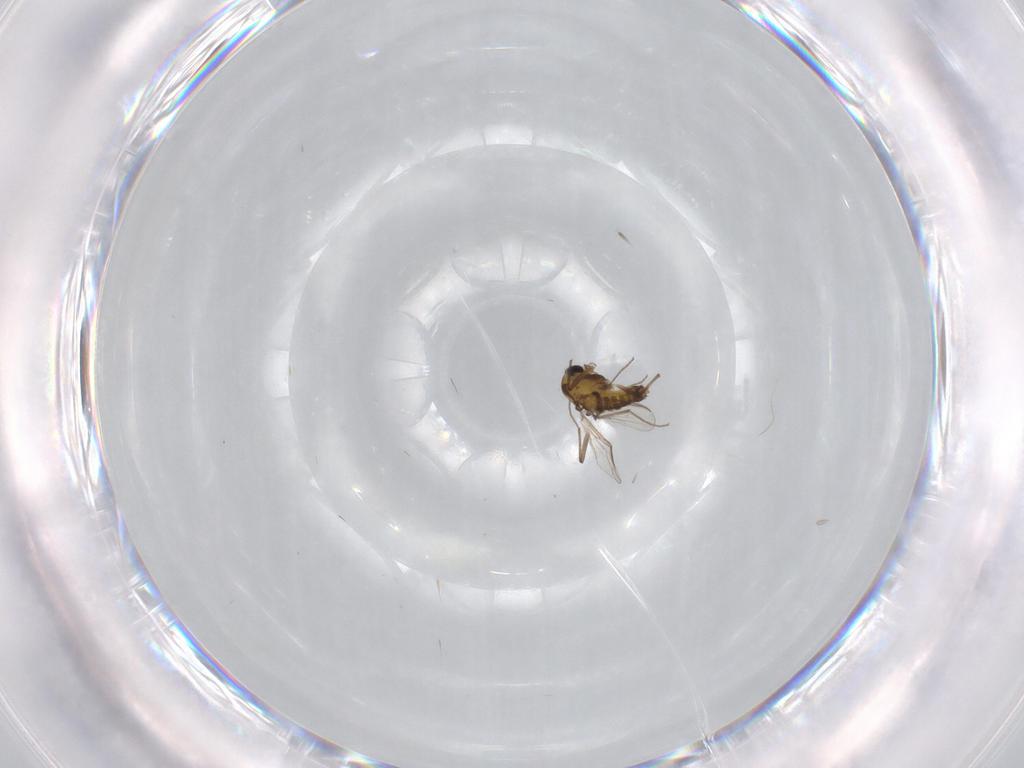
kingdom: Animalia
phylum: Arthropoda
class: Insecta
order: Diptera
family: Chironomidae
